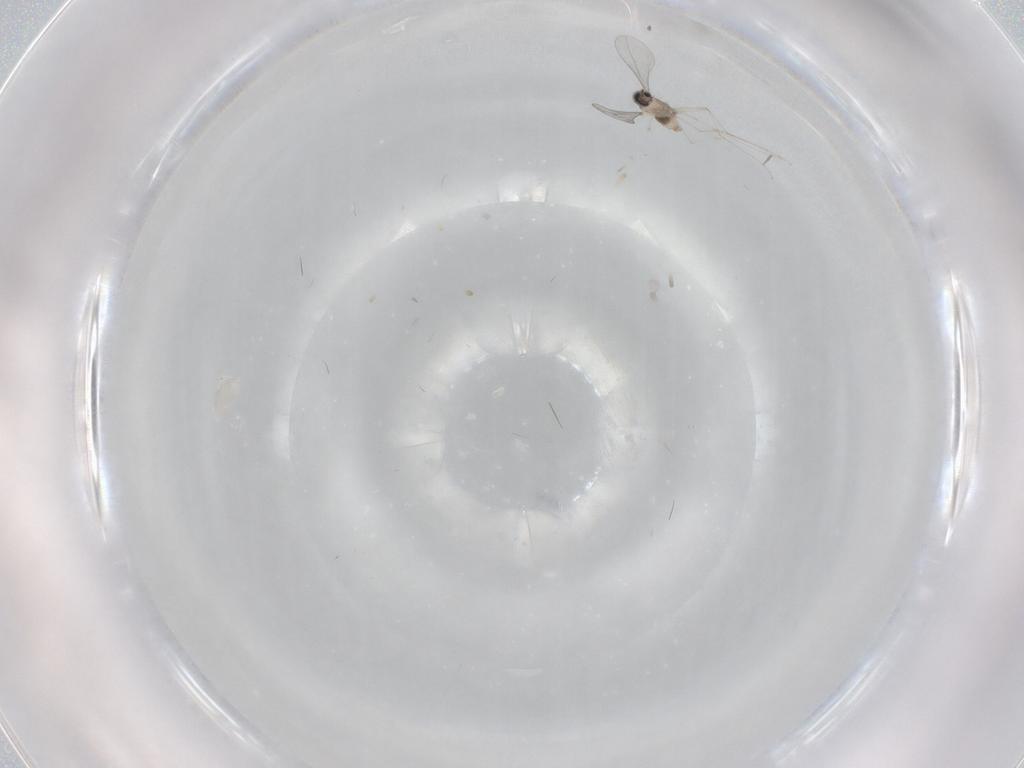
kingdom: Animalia
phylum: Arthropoda
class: Insecta
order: Diptera
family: Cecidomyiidae
